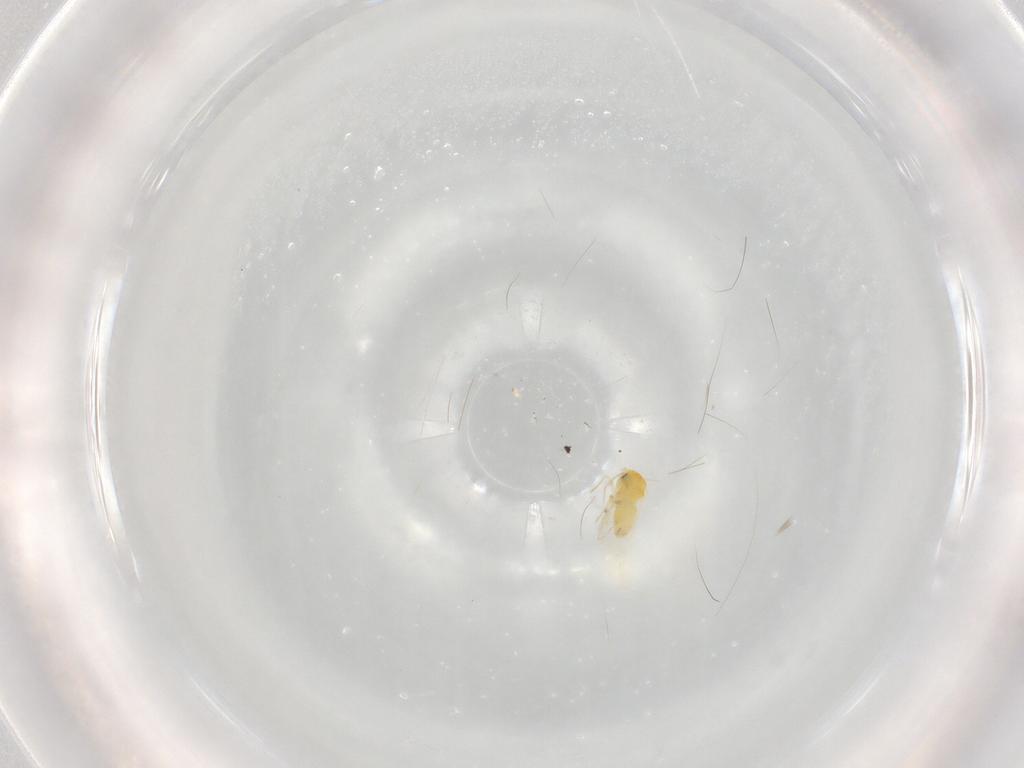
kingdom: Animalia
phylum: Arthropoda
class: Insecta
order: Hemiptera
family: Aleyrodidae
